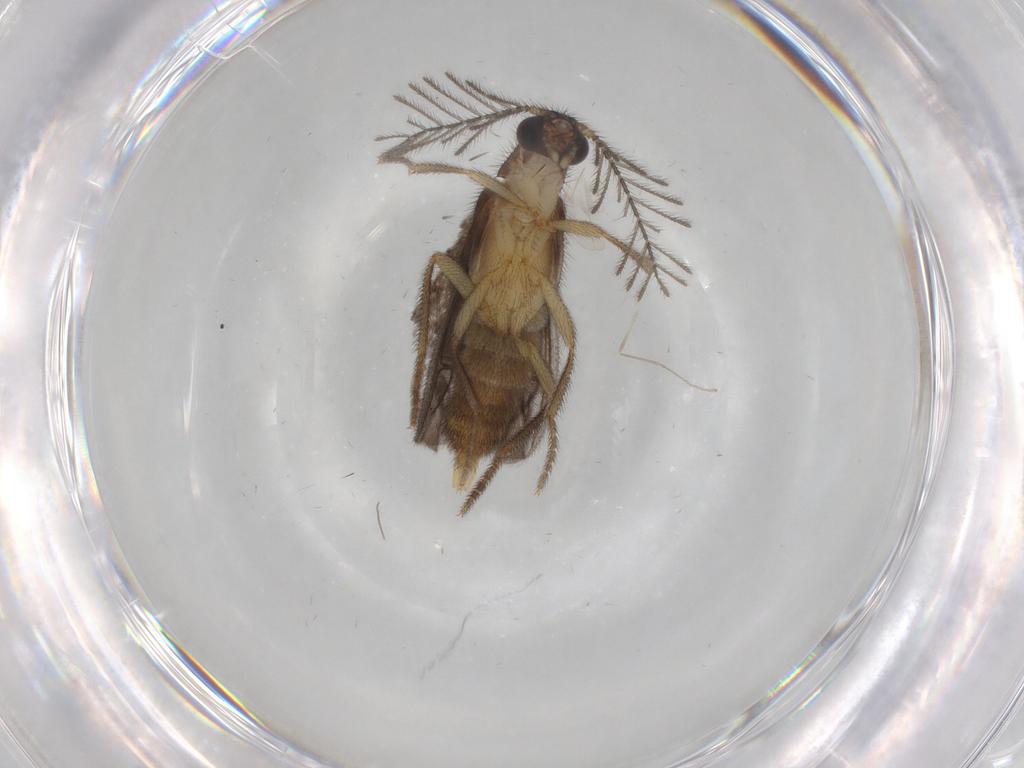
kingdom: Animalia
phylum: Arthropoda
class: Insecta
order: Coleoptera
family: Phengodidae
